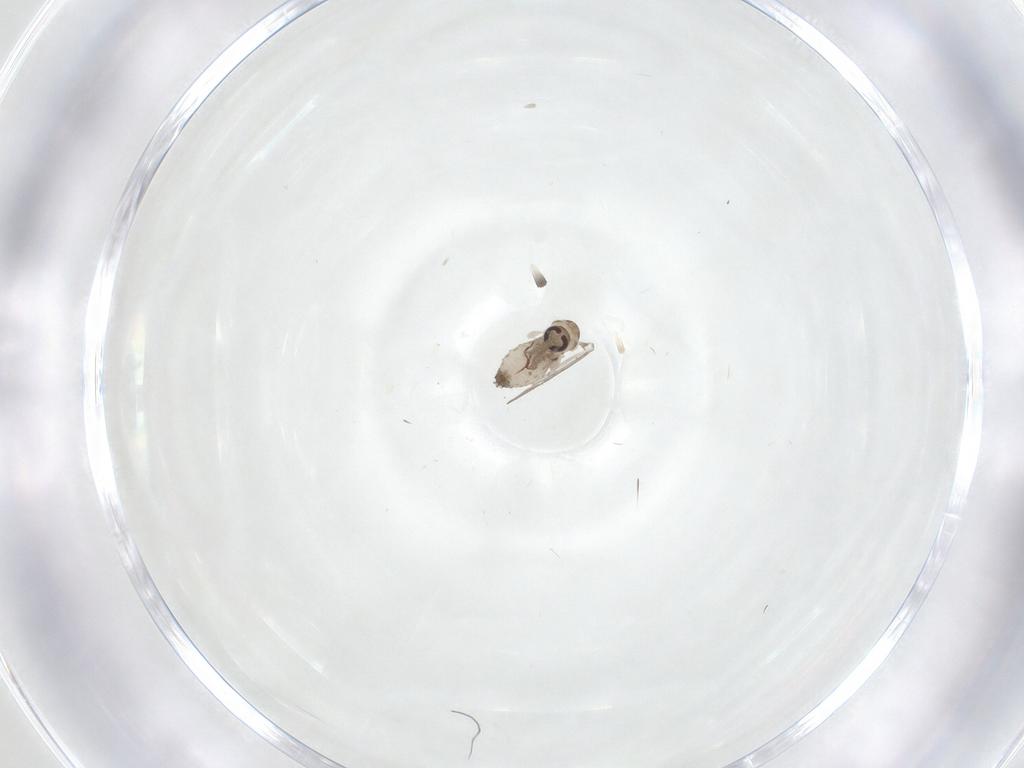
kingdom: Animalia
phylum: Arthropoda
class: Insecta
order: Diptera
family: Psychodidae
